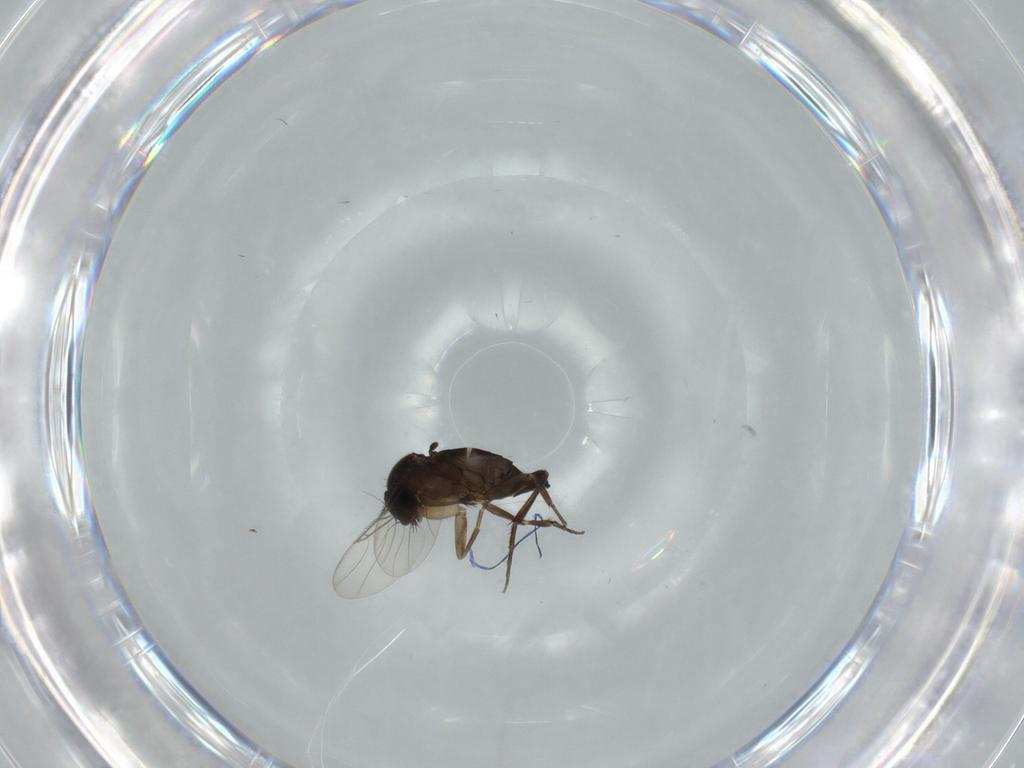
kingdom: Animalia
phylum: Arthropoda
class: Insecta
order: Diptera
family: Phoridae
